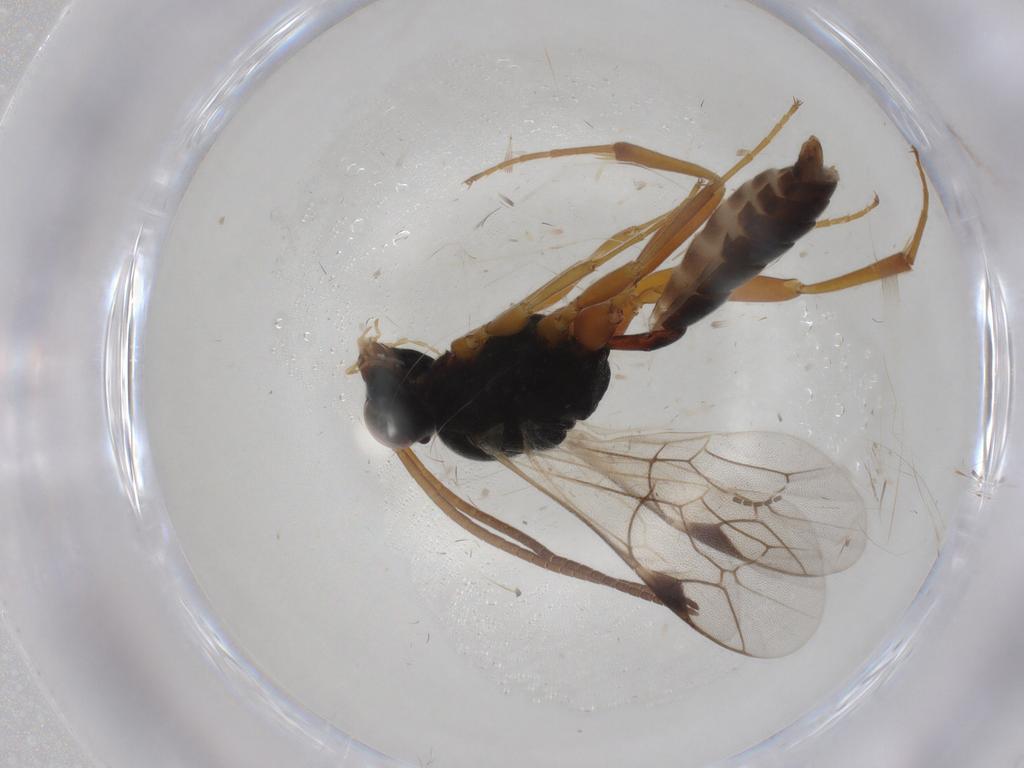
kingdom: Animalia
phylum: Arthropoda
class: Insecta
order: Hymenoptera
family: Ichneumonidae
